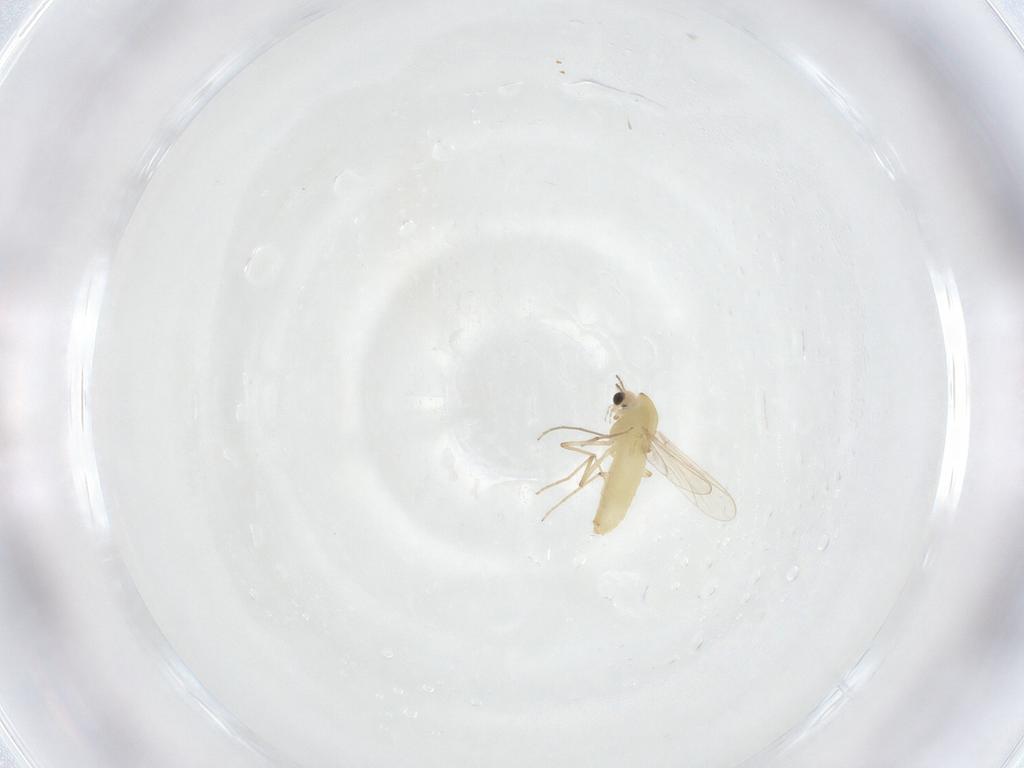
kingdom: Animalia
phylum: Arthropoda
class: Insecta
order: Diptera
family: Chironomidae
